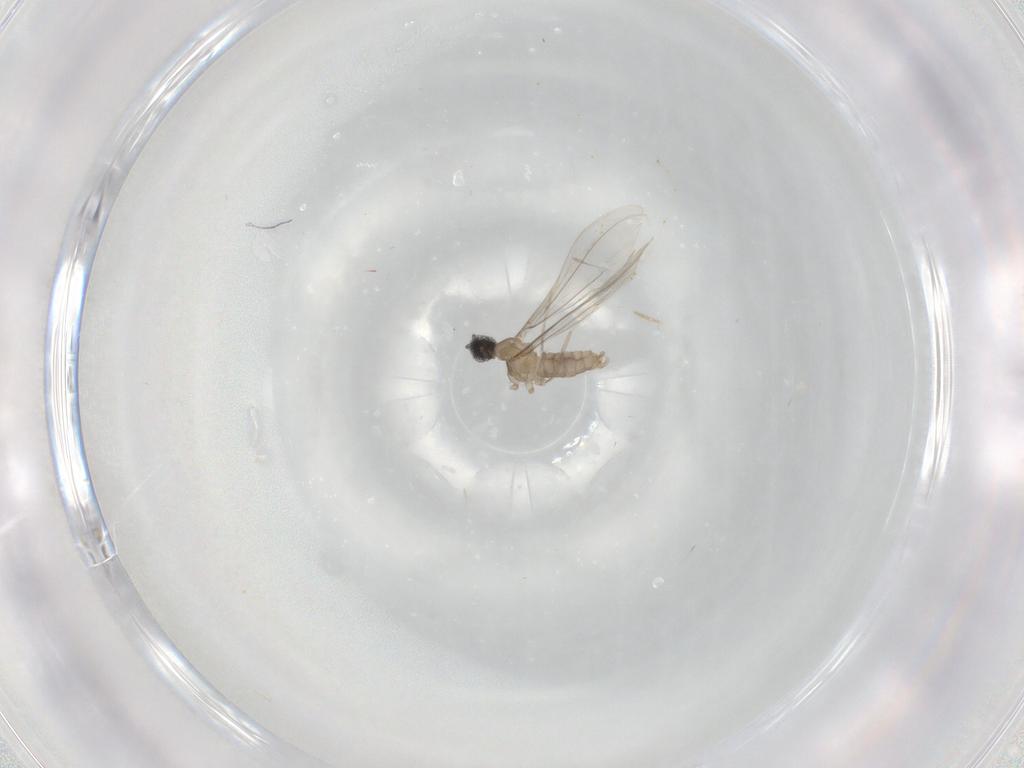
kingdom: Animalia
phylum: Arthropoda
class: Insecta
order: Diptera
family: Cecidomyiidae
